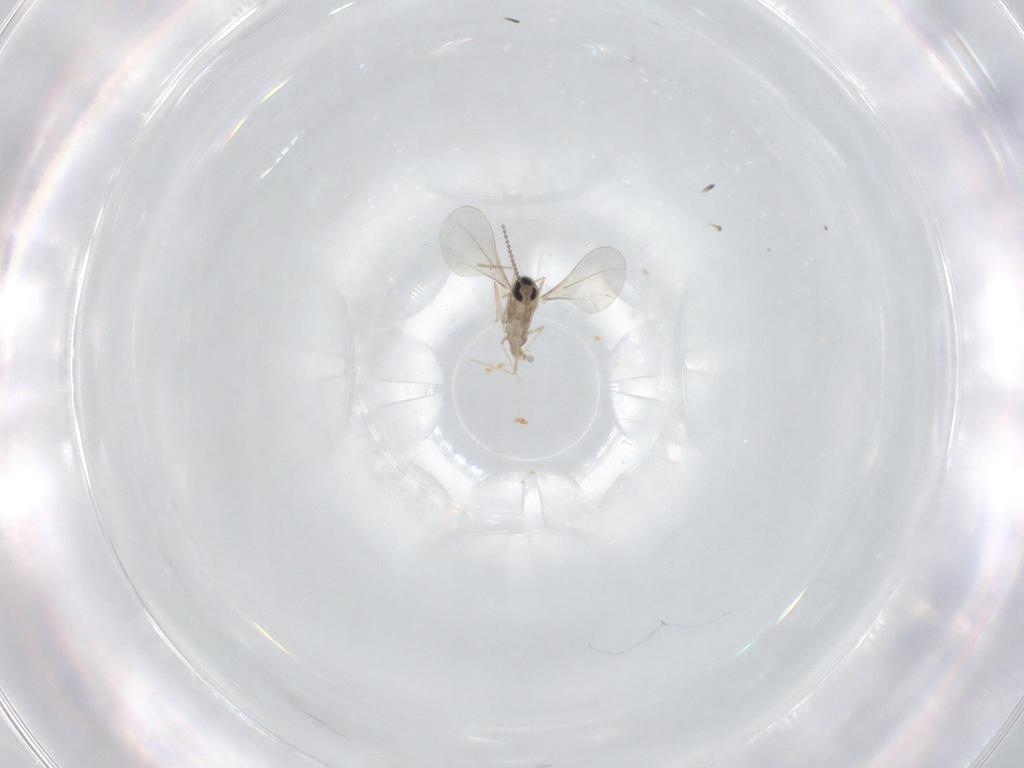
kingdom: Animalia
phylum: Arthropoda
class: Insecta
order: Diptera
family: Cecidomyiidae
